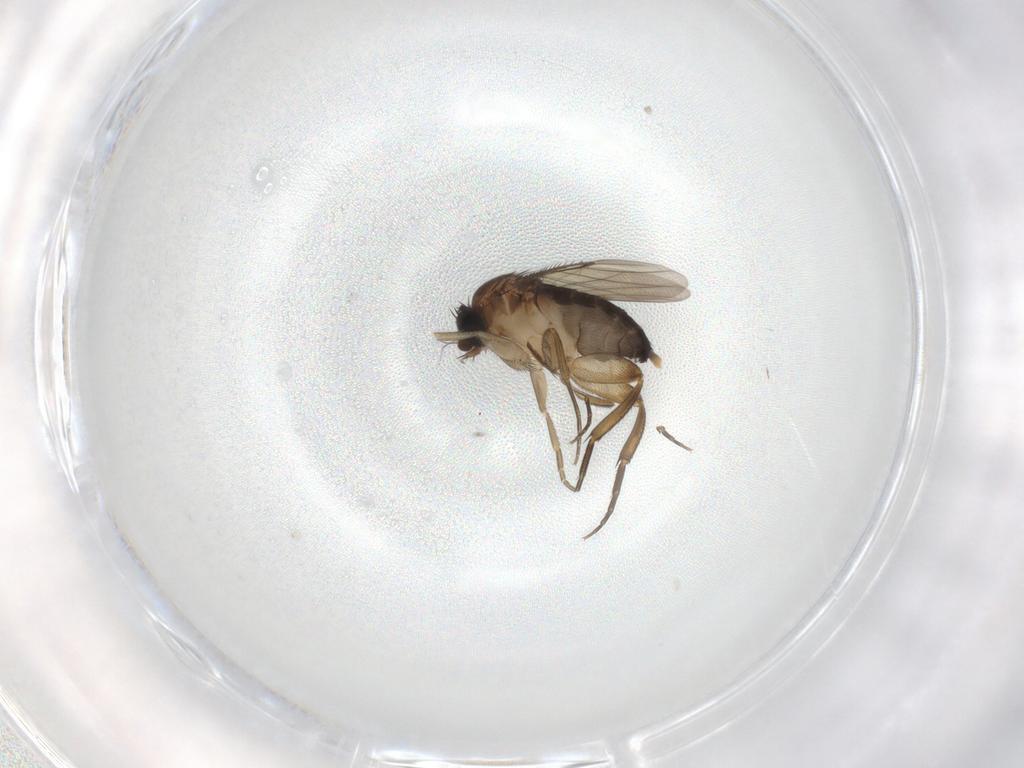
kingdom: Animalia
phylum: Arthropoda
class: Insecta
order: Diptera
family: Phoridae
